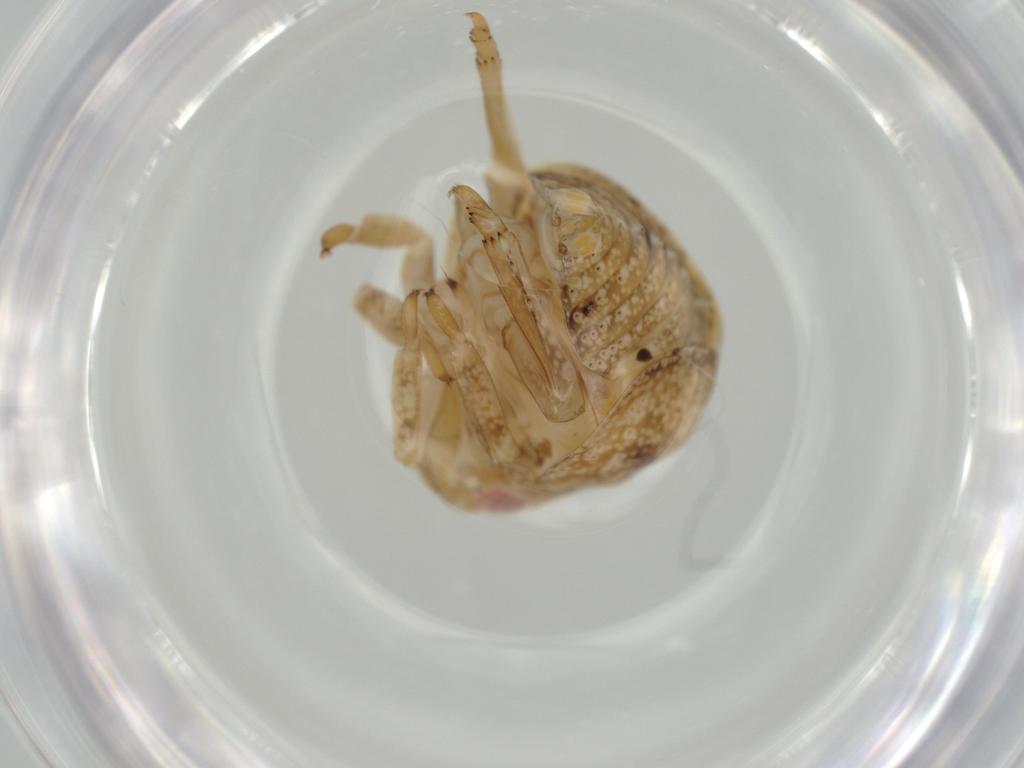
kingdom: Animalia
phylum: Arthropoda
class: Insecta
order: Hemiptera
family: Acanaloniidae
